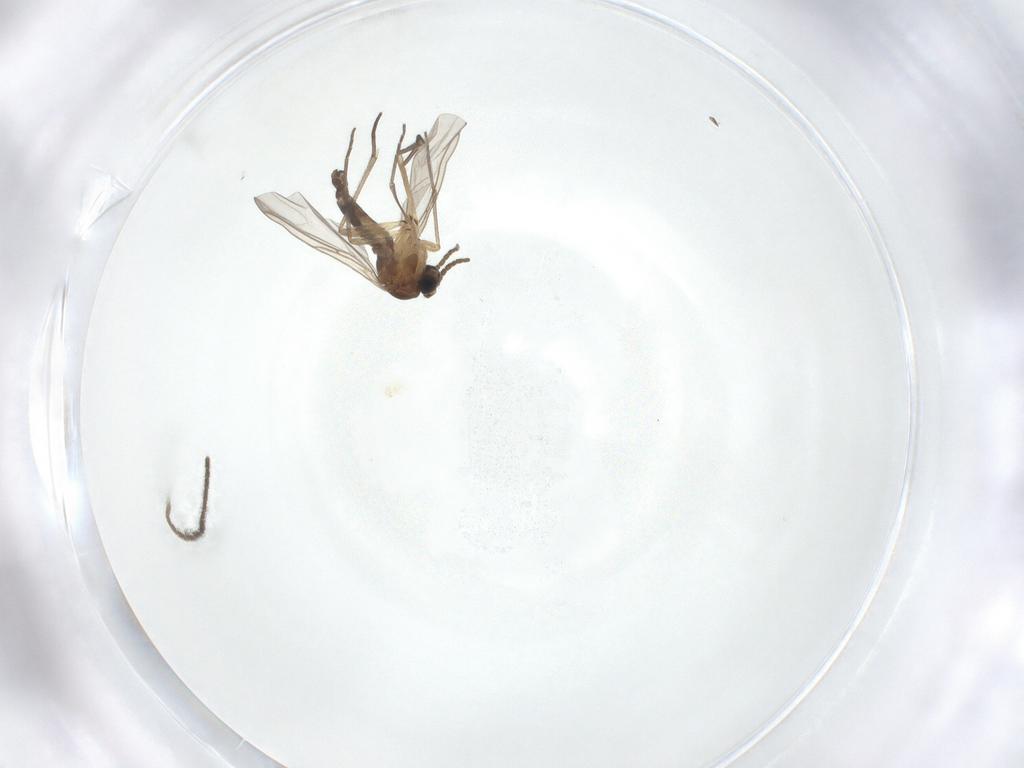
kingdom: Animalia
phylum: Arthropoda
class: Insecta
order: Diptera
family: Sciaridae
